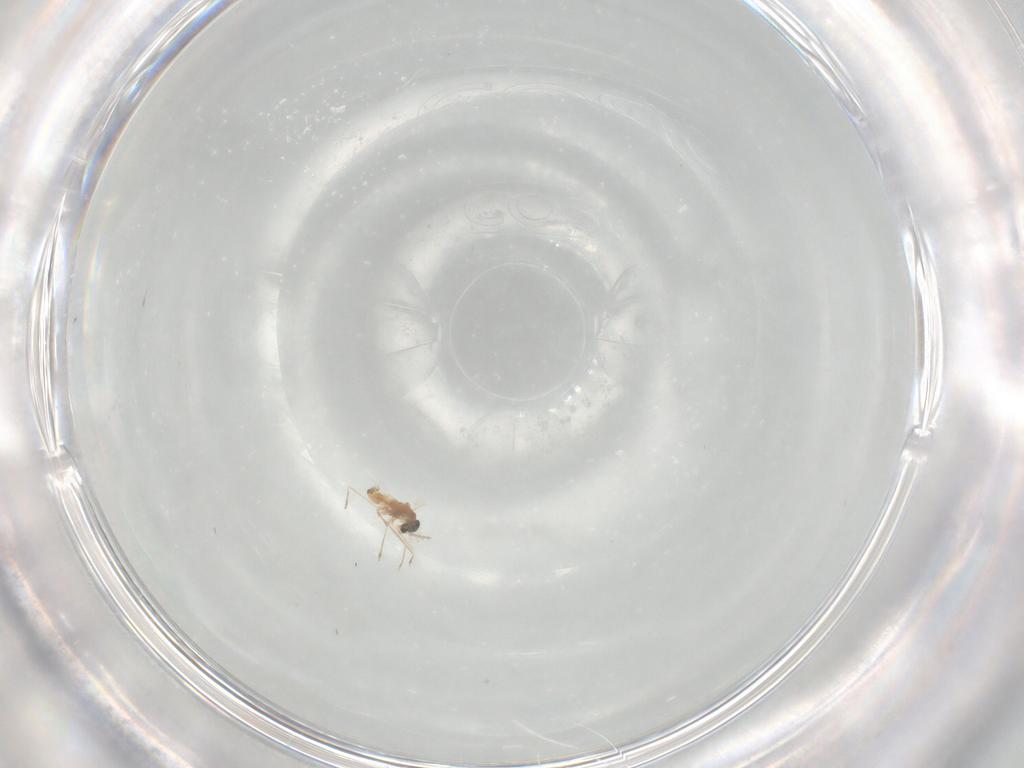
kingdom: Animalia
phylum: Arthropoda
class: Insecta
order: Diptera
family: Cecidomyiidae
